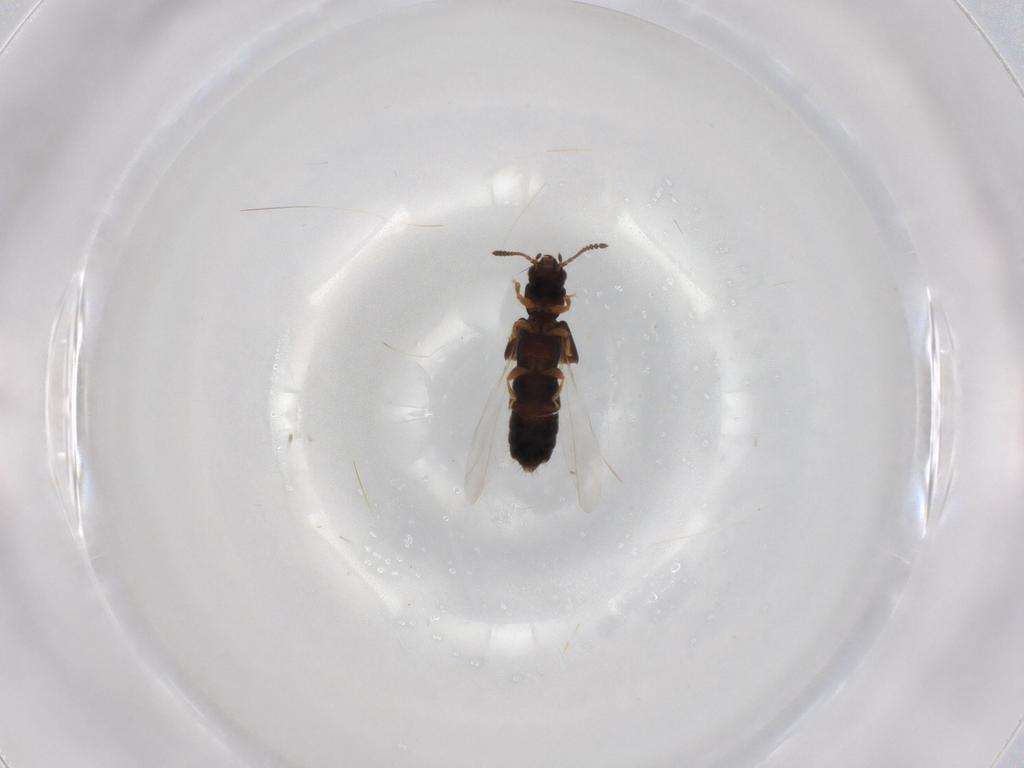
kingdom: Animalia
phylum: Arthropoda
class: Insecta
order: Coleoptera
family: Staphylinidae
